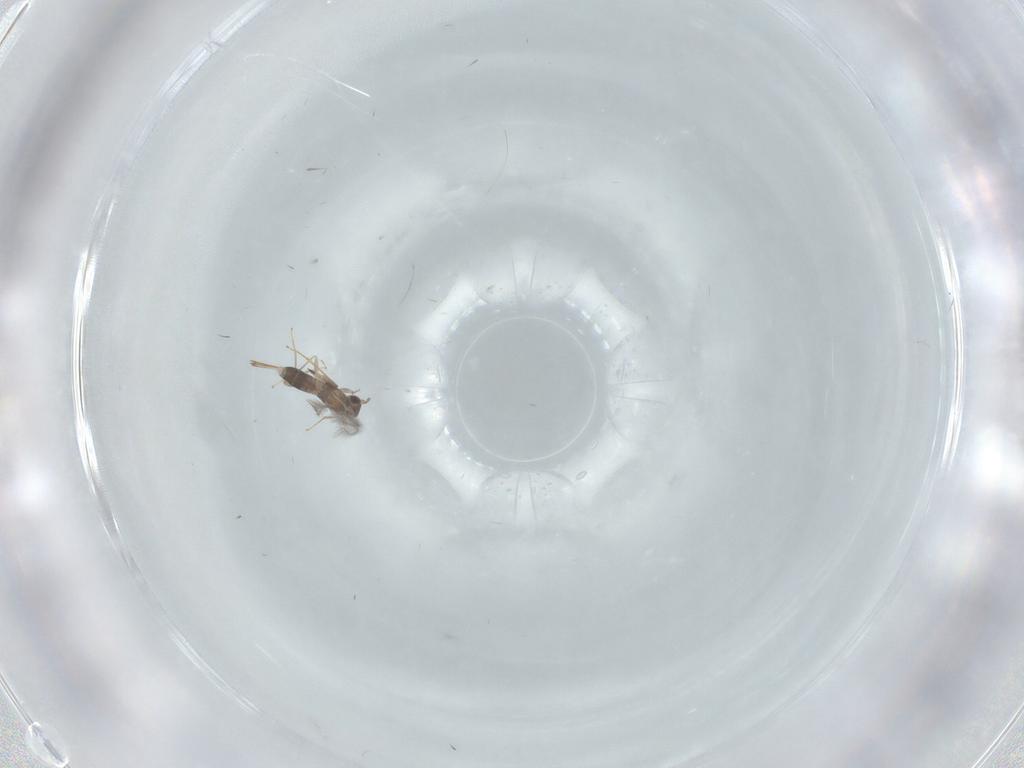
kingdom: Animalia
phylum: Arthropoda
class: Insecta
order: Hymenoptera
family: Mymaridae
